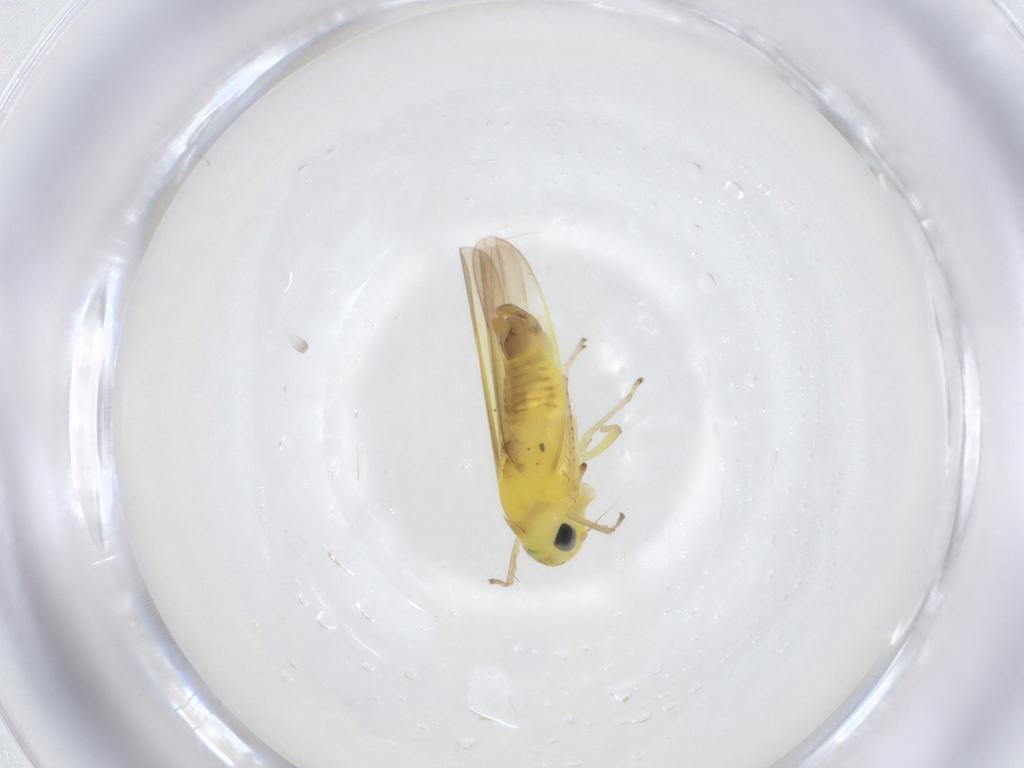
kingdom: Animalia
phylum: Arthropoda
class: Insecta
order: Hemiptera
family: Cicadellidae
